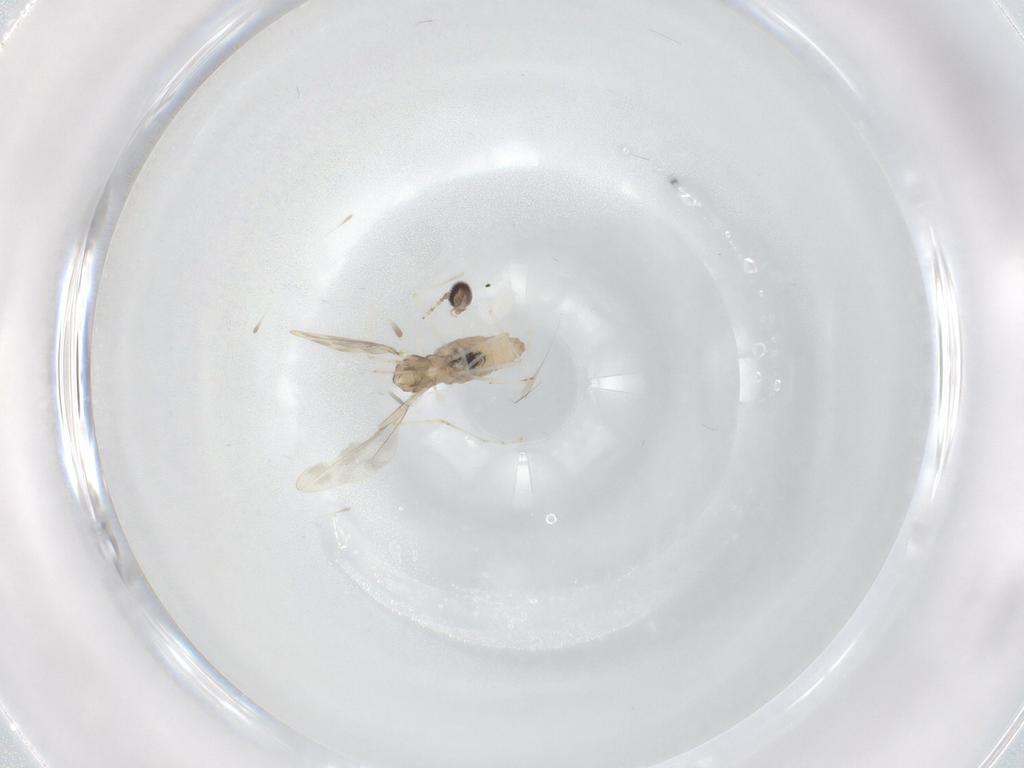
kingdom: Animalia
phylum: Arthropoda
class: Insecta
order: Diptera
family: Cecidomyiidae
